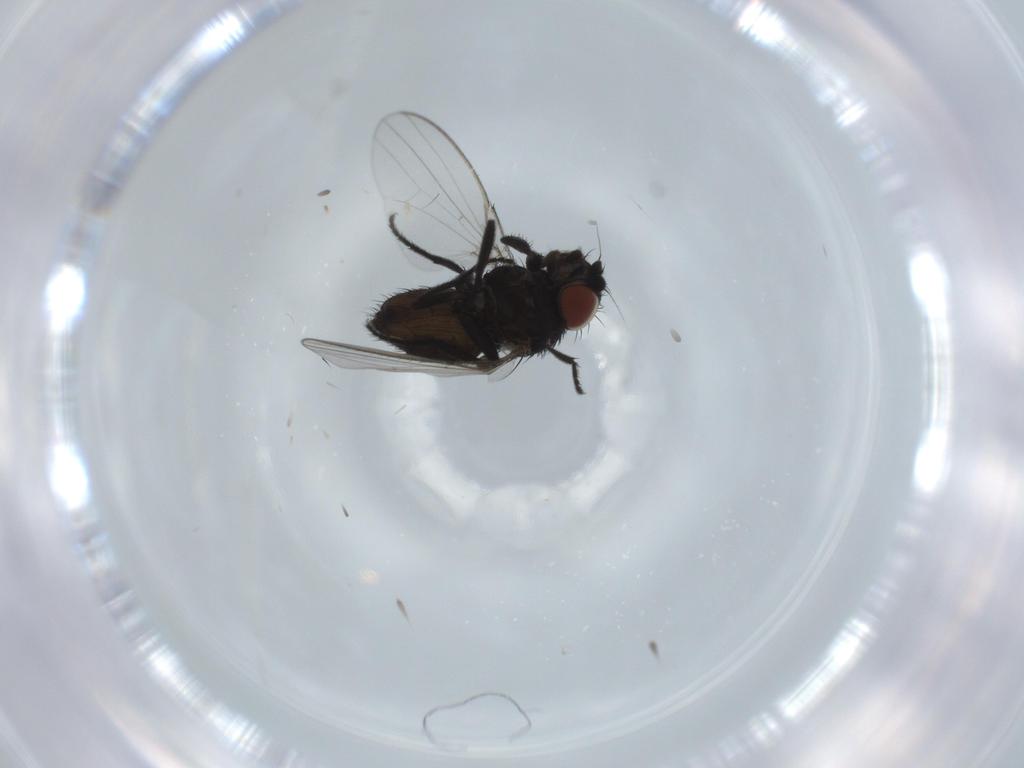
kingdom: Animalia
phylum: Arthropoda
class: Insecta
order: Diptera
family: Milichiidae
